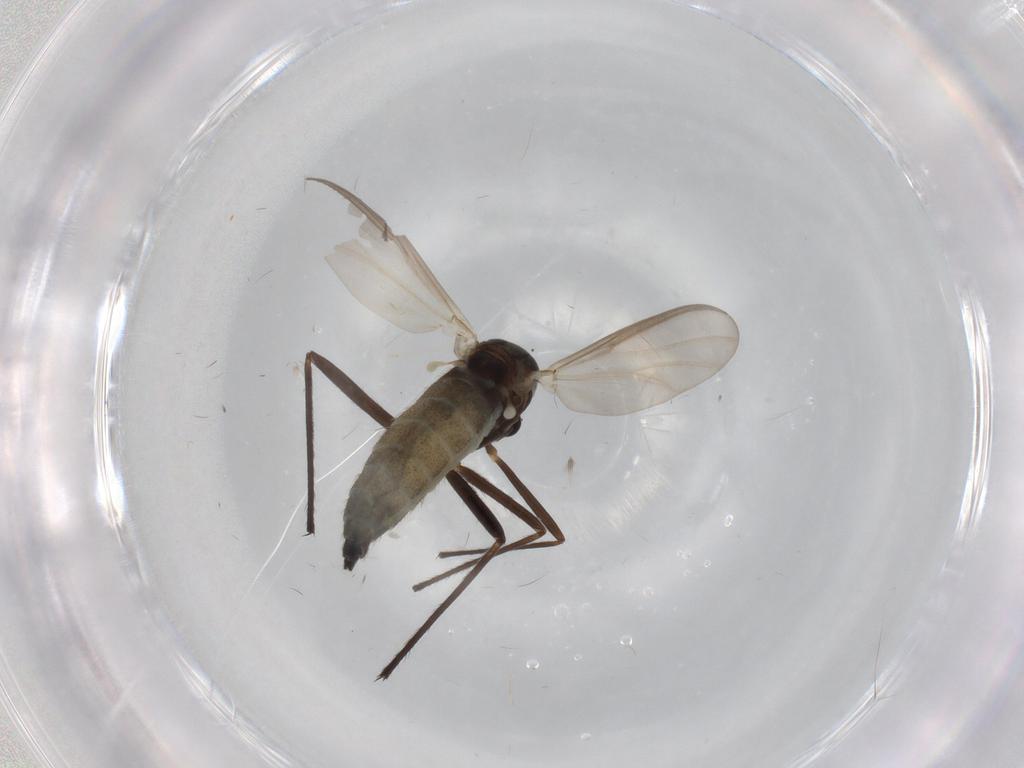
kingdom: Animalia
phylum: Arthropoda
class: Insecta
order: Diptera
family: Chironomidae
